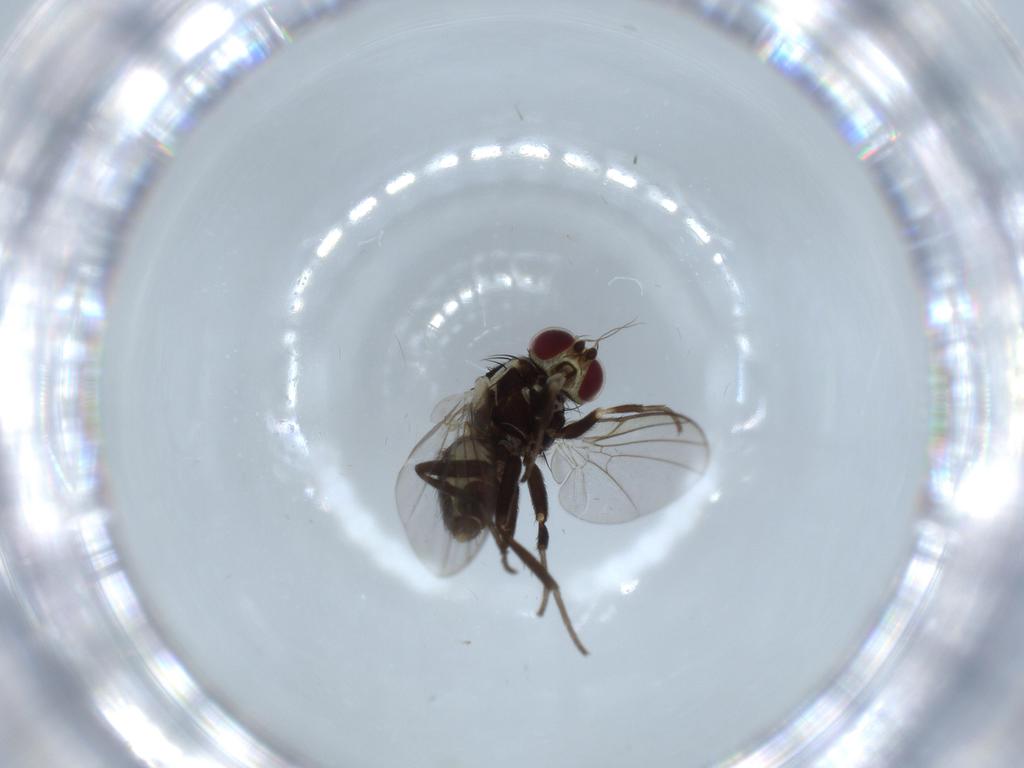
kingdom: Animalia
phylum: Arthropoda
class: Insecta
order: Diptera
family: Agromyzidae
